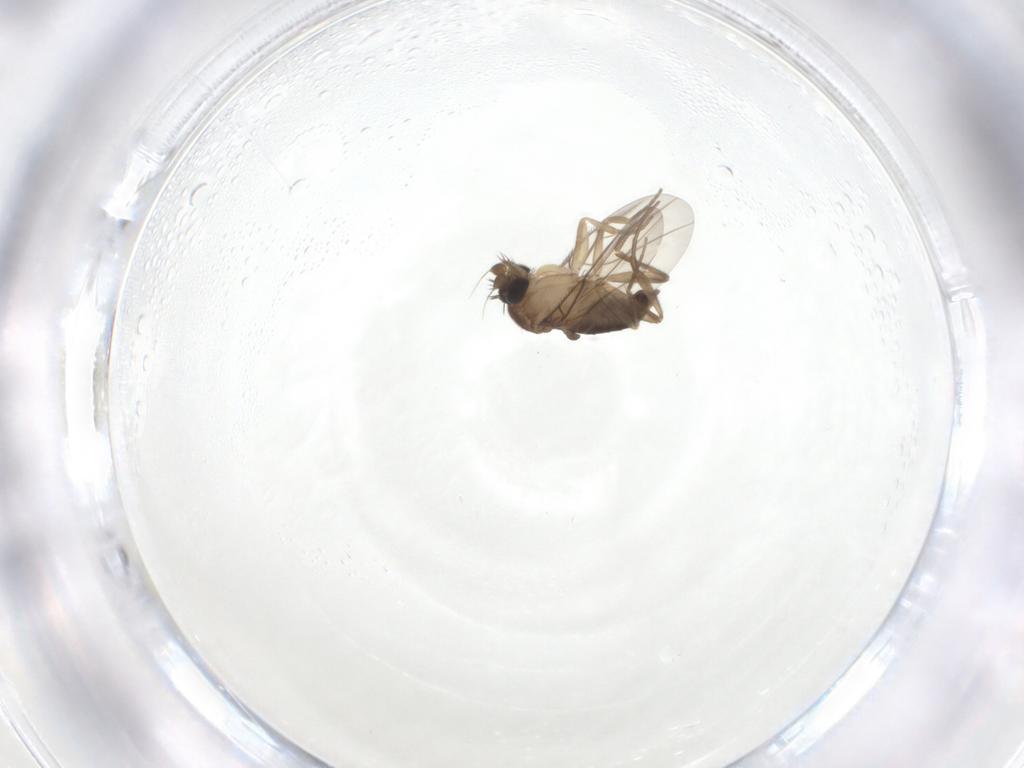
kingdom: Animalia
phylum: Arthropoda
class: Insecta
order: Diptera
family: Phoridae
